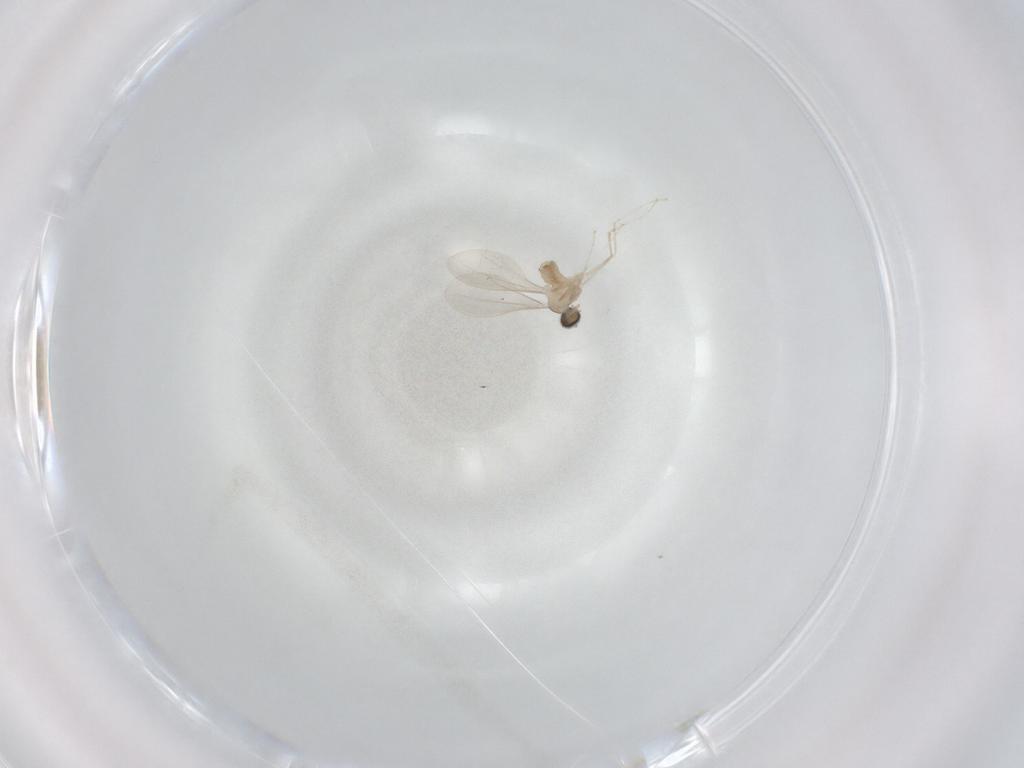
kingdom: Animalia
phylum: Arthropoda
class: Insecta
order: Diptera
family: Cecidomyiidae
